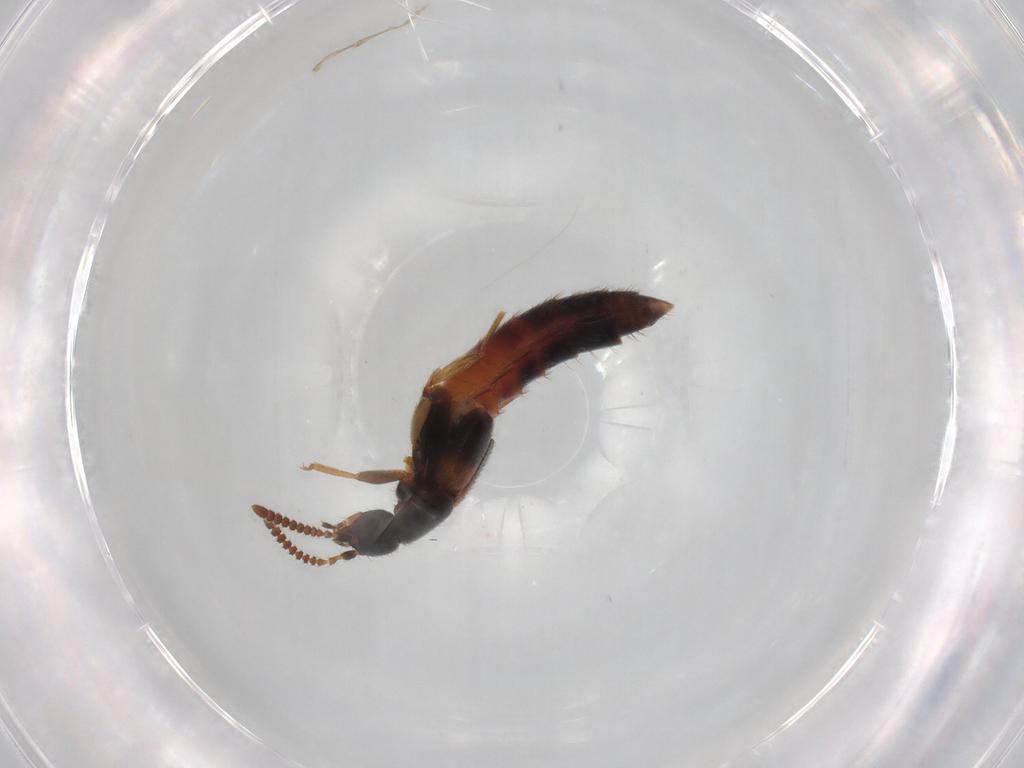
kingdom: Animalia
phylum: Arthropoda
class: Insecta
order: Coleoptera
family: Staphylinidae
